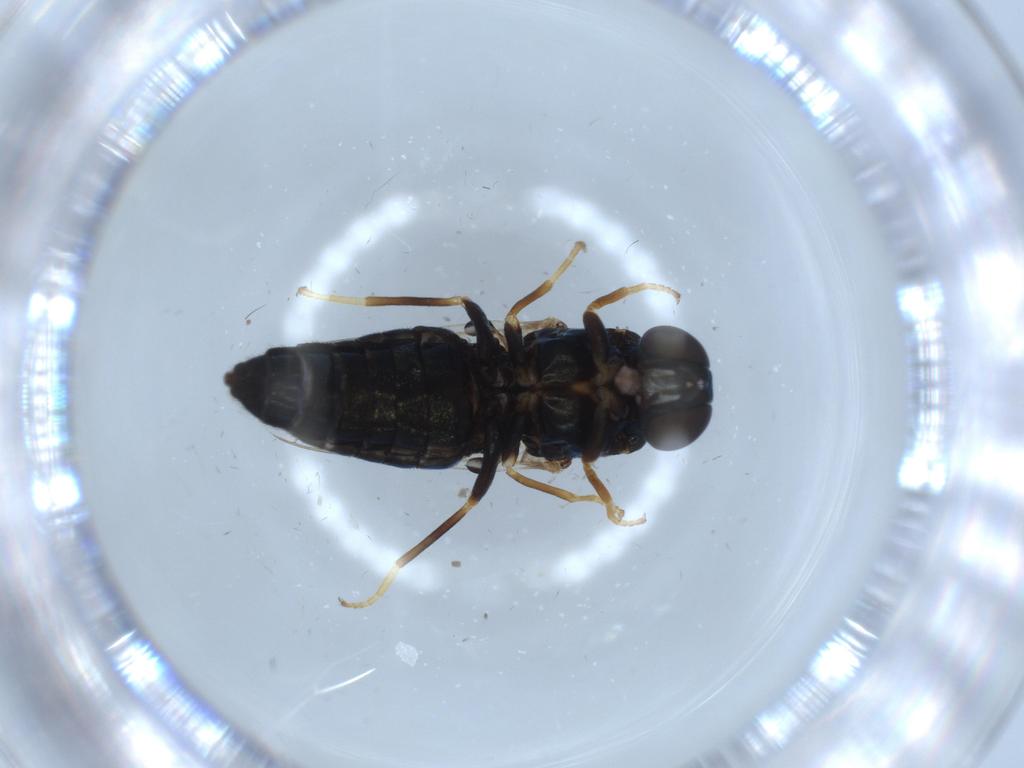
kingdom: Animalia
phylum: Arthropoda
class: Insecta
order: Diptera
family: Scenopinidae
